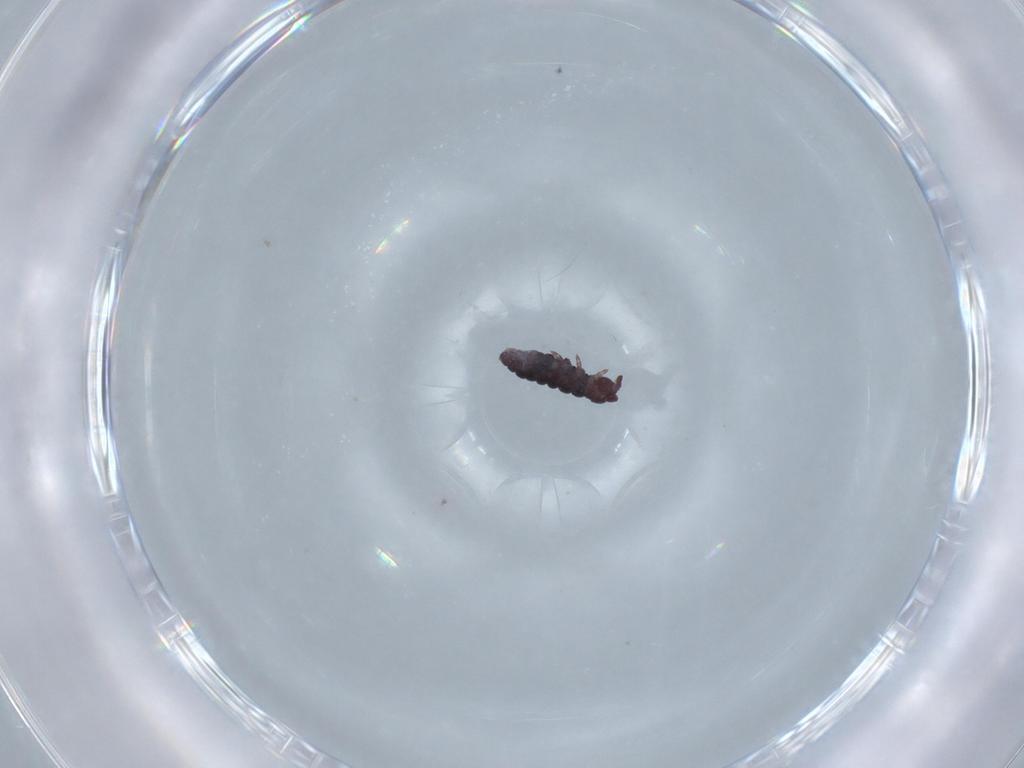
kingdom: Animalia
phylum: Arthropoda
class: Collembola
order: Poduromorpha
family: Hypogastruridae
